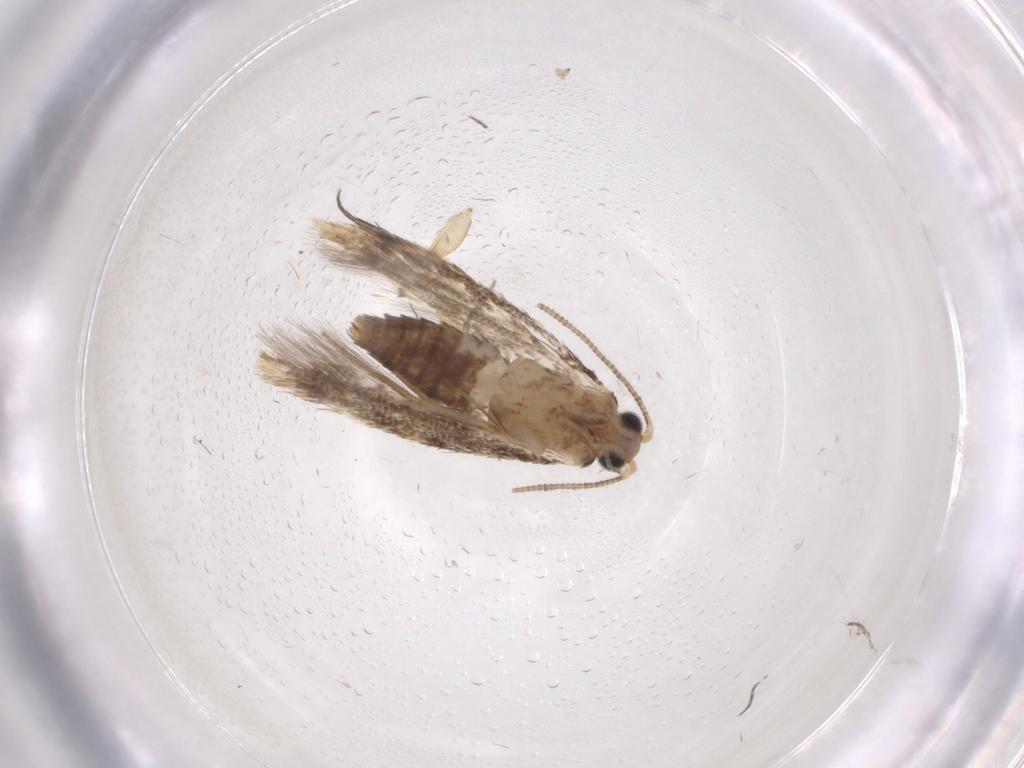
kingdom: Animalia
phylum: Arthropoda
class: Insecta
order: Lepidoptera
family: Tineidae
